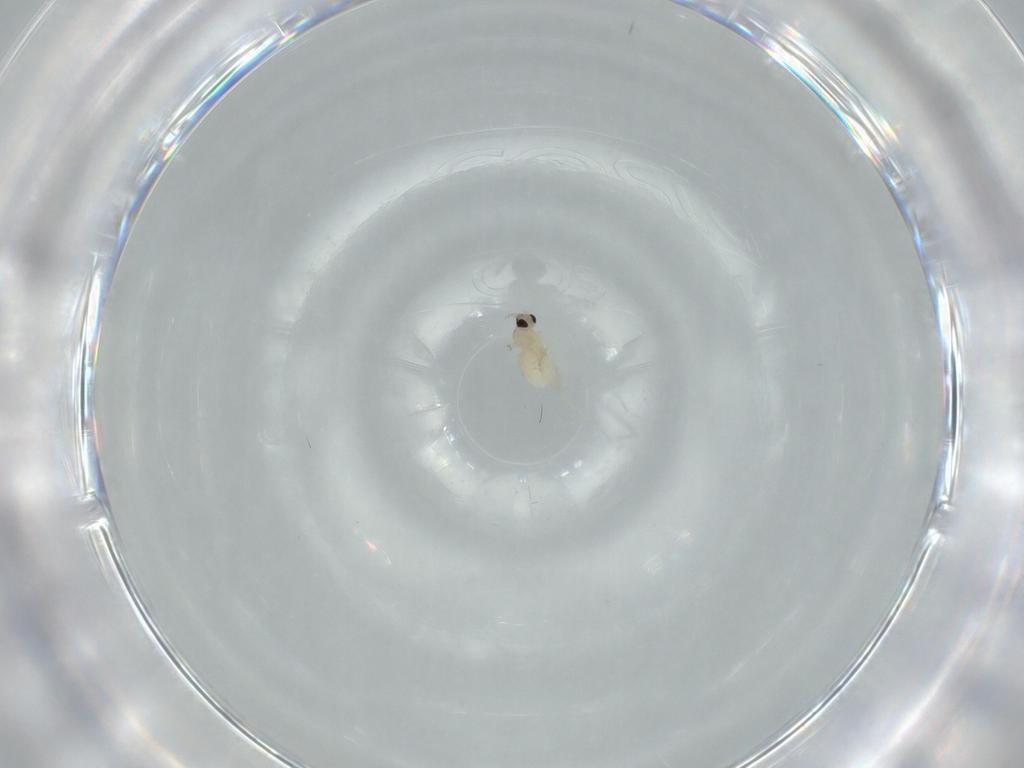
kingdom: Animalia
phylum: Arthropoda
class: Insecta
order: Diptera
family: Cecidomyiidae
